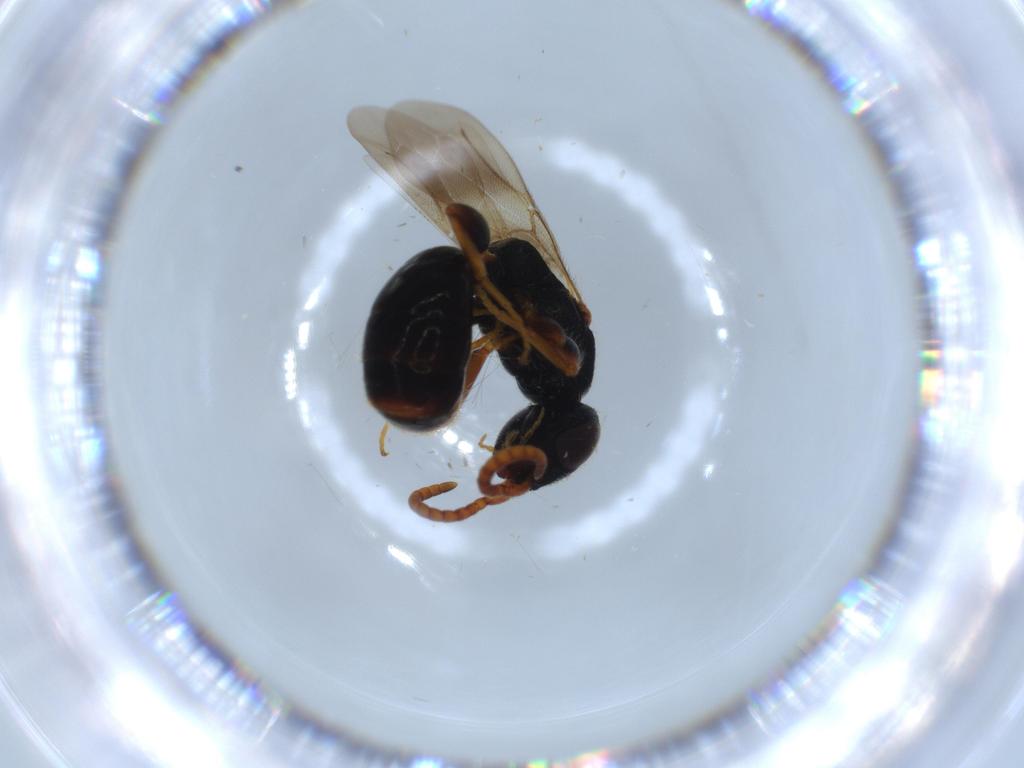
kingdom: Animalia
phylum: Arthropoda
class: Insecta
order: Hymenoptera
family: Bethylidae
